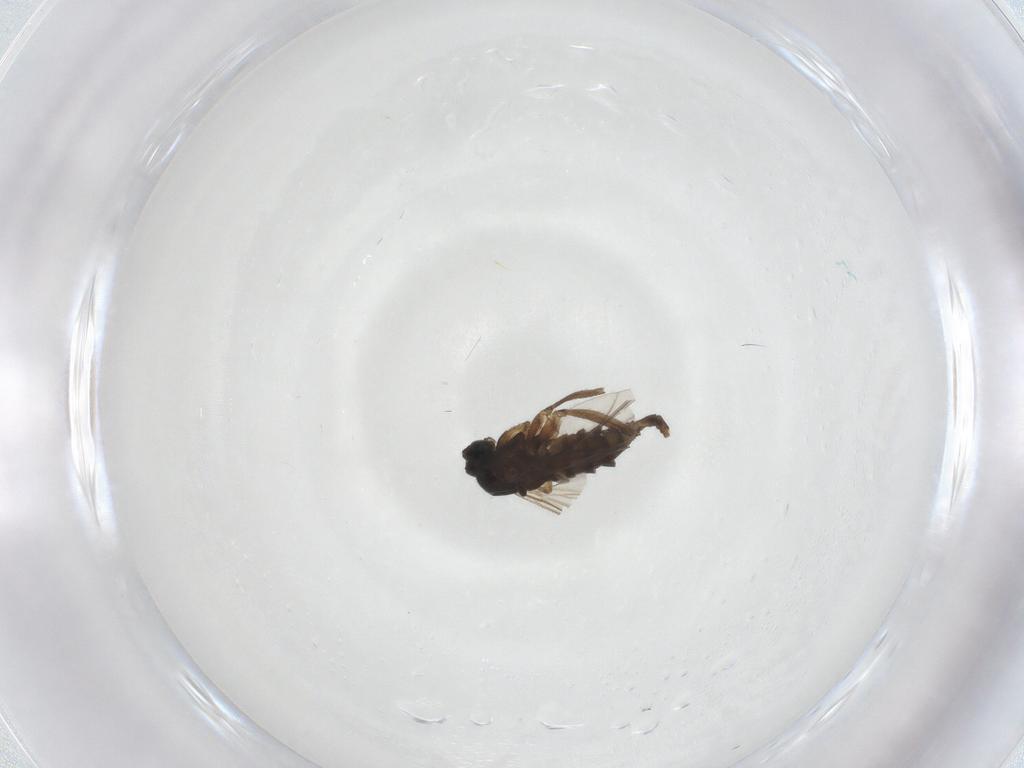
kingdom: Animalia
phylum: Arthropoda
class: Insecta
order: Diptera
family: Sciaridae
